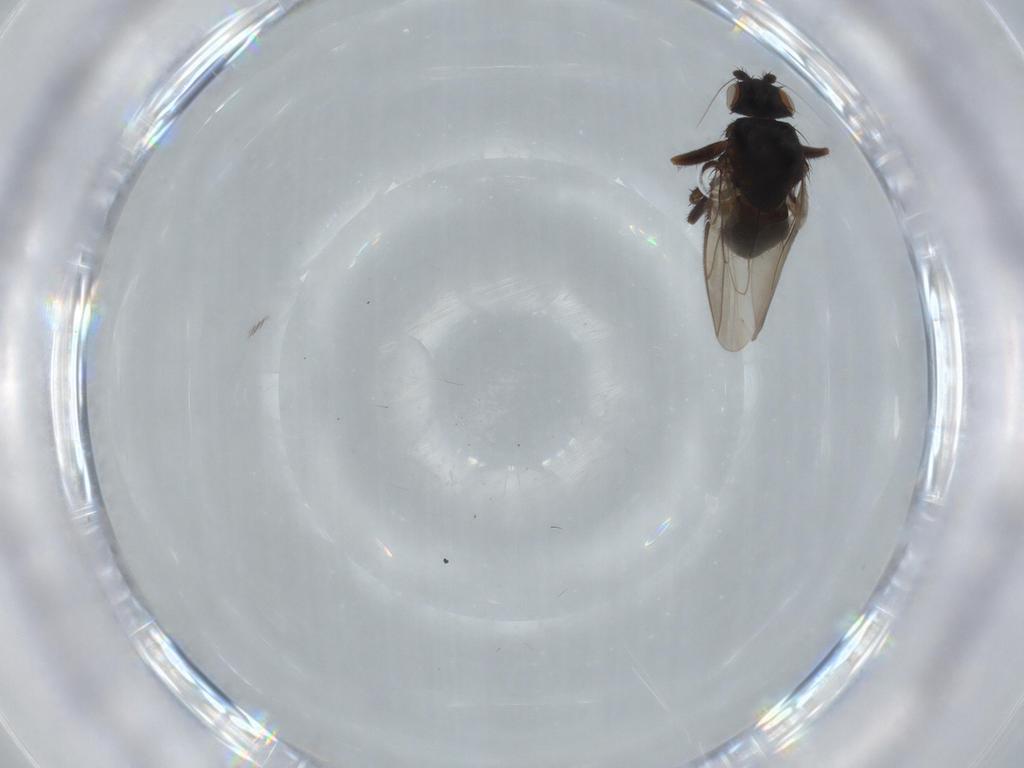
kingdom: Animalia
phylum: Arthropoda
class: Insecta
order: Diptera
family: Sphaeroceridae
